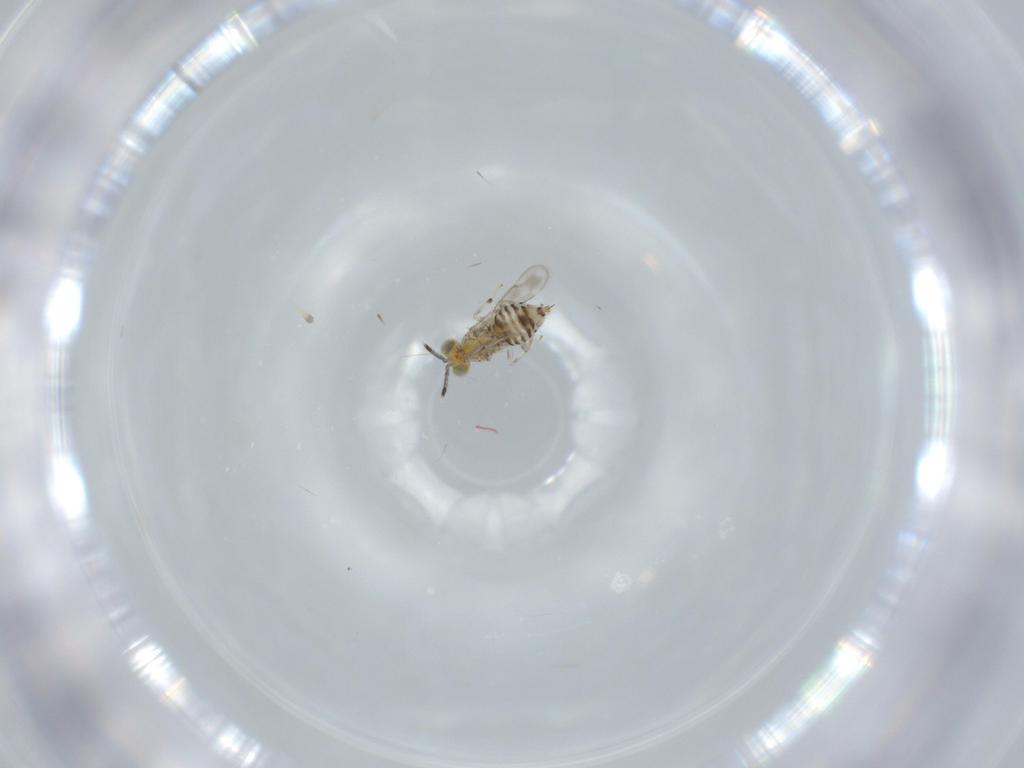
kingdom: Animalia
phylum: Arthropoda
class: Insecta
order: Hymenoptera
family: Aphelinidae
